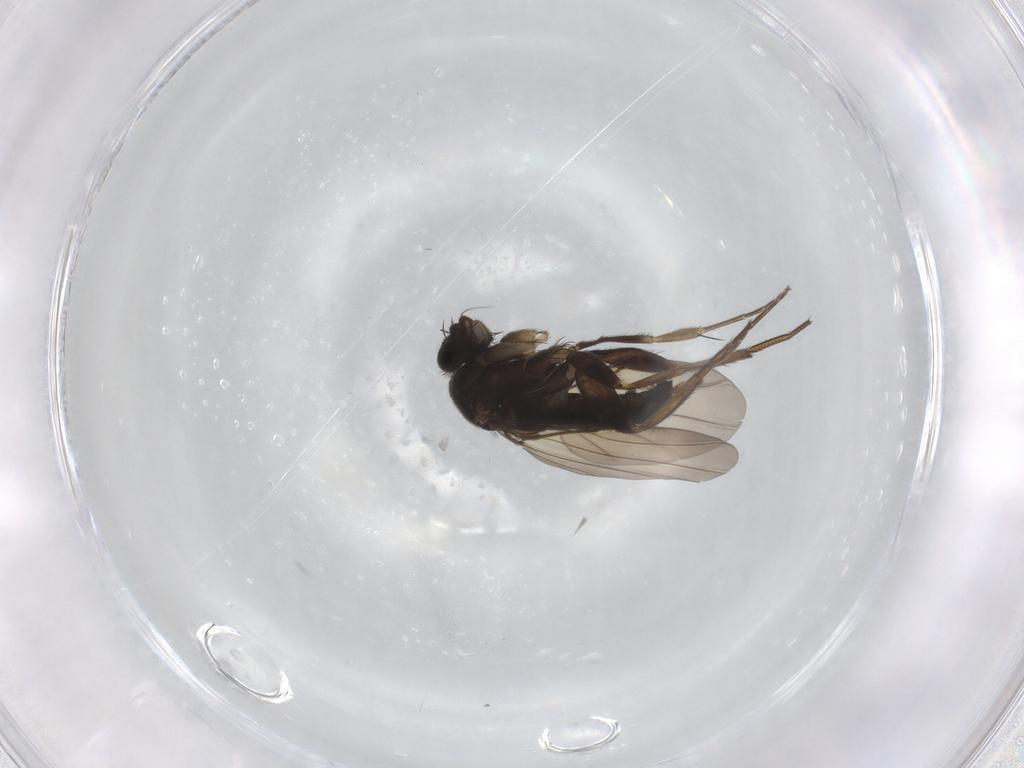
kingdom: Animalia
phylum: Arthropoda
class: Insecta
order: Diptera
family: Phoridae
